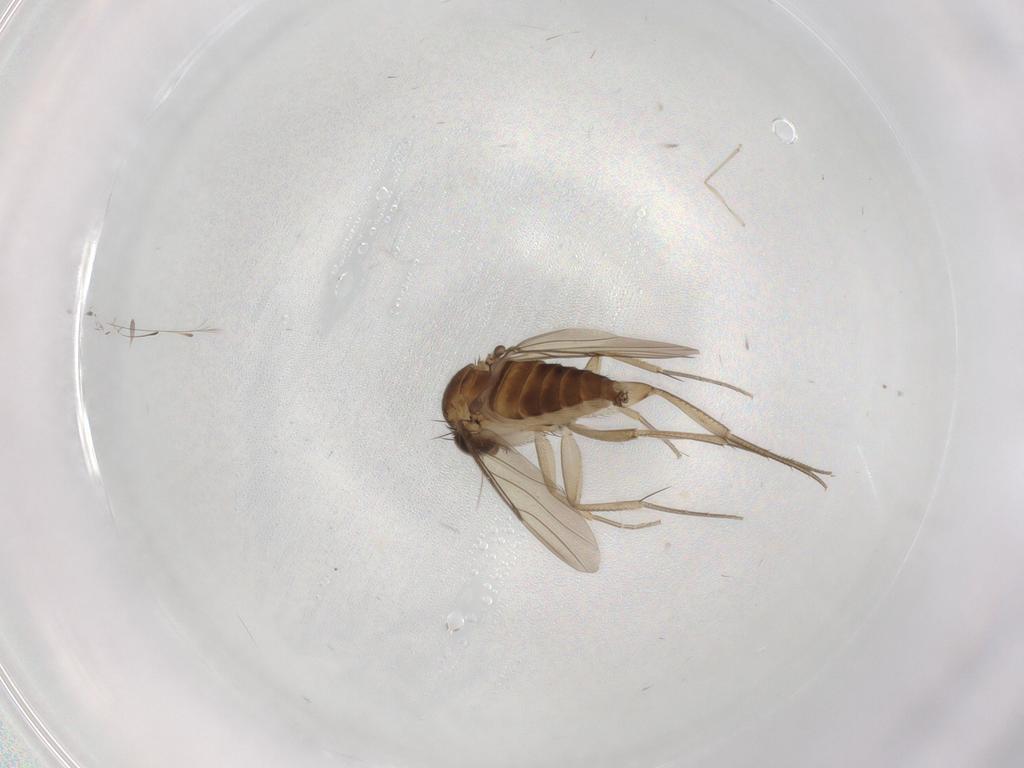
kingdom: Animalia
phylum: Arthropoda
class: Insecta
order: Diptera
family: Phoridae
